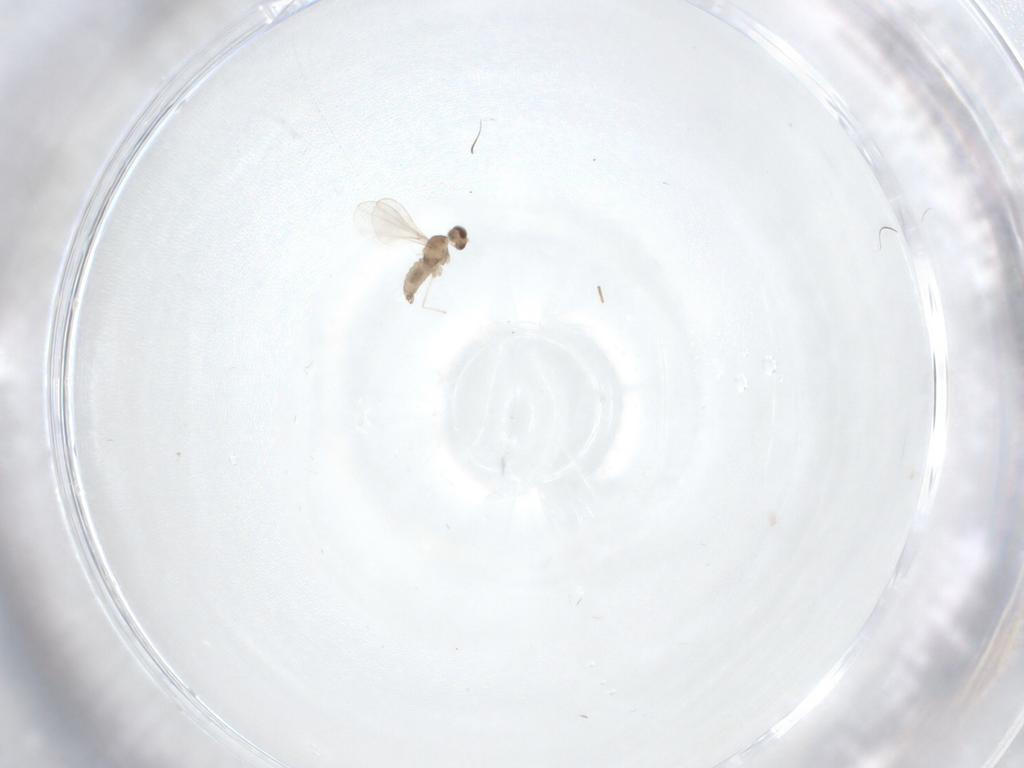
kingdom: Animalia
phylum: Arthropoda
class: Insecta
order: Diptera
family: Cecidomyiidae
